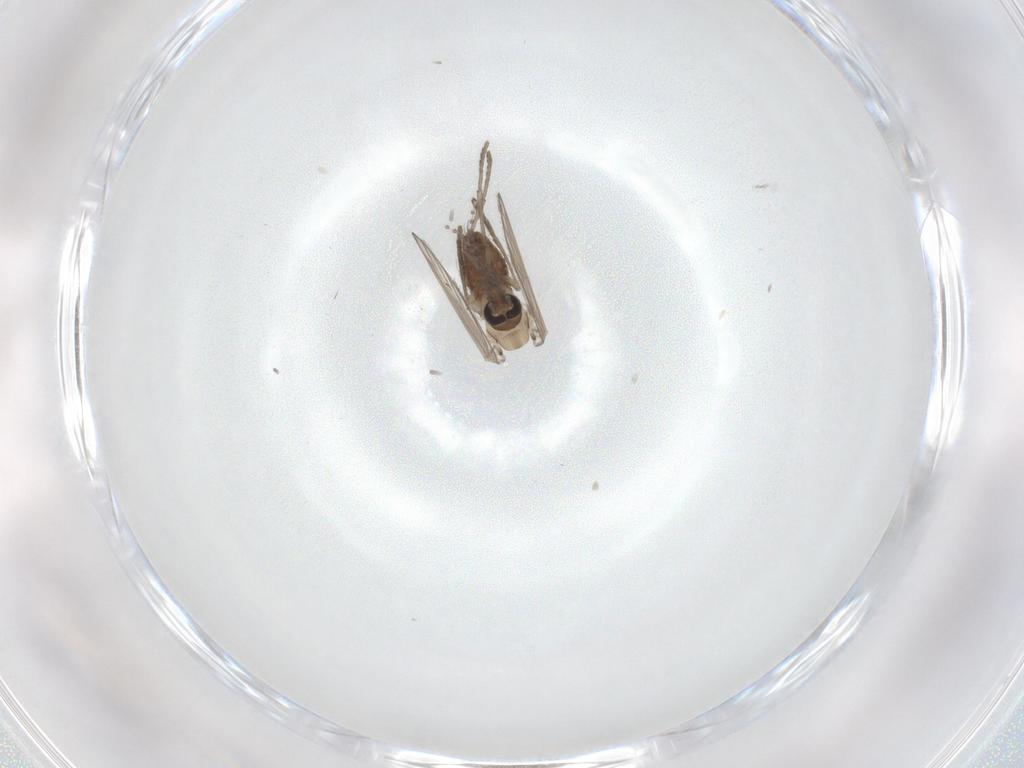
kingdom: Animalia
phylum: Arthropoda
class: Insecta
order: Diptera
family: Psychodidae
